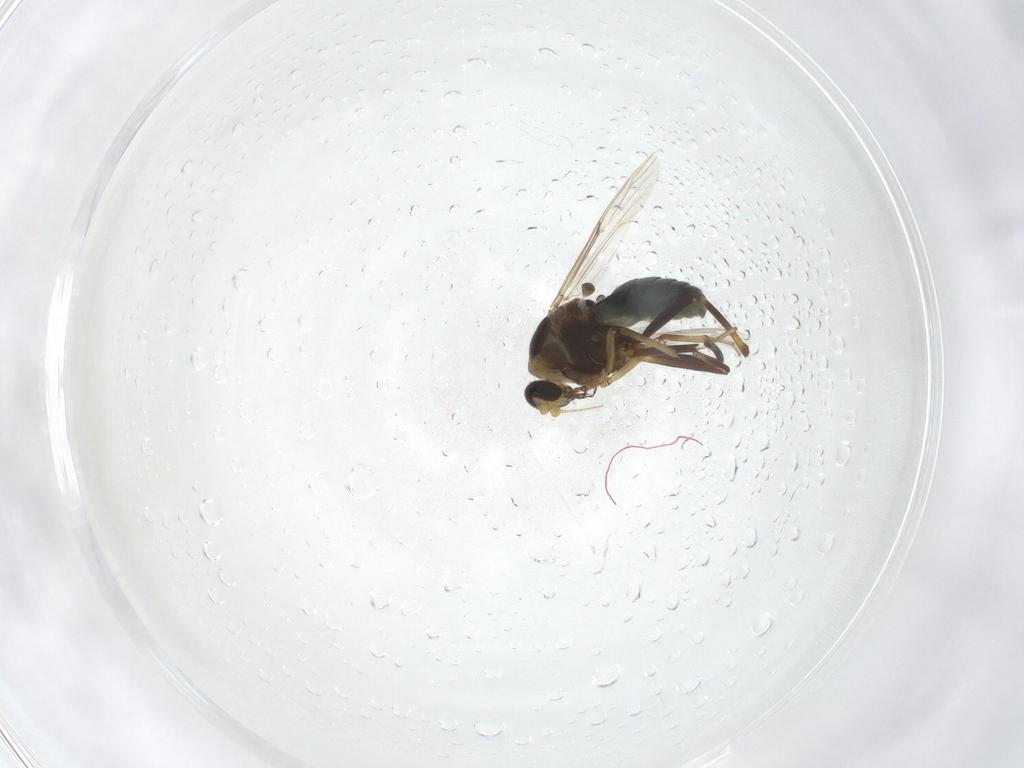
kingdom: Animalia
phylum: Arthropoda
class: Insecta
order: Diptera
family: Ceratopogonidae
